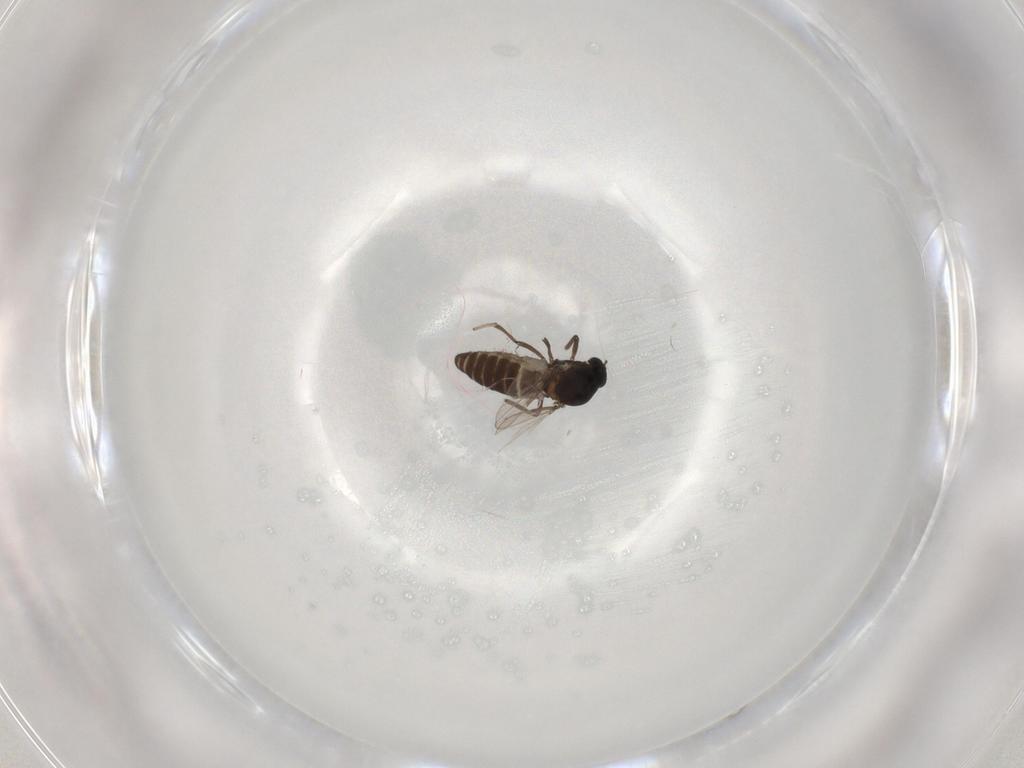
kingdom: Animalia
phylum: Arthropoda
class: Insecta
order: Diptera
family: Ceratopogonidae
